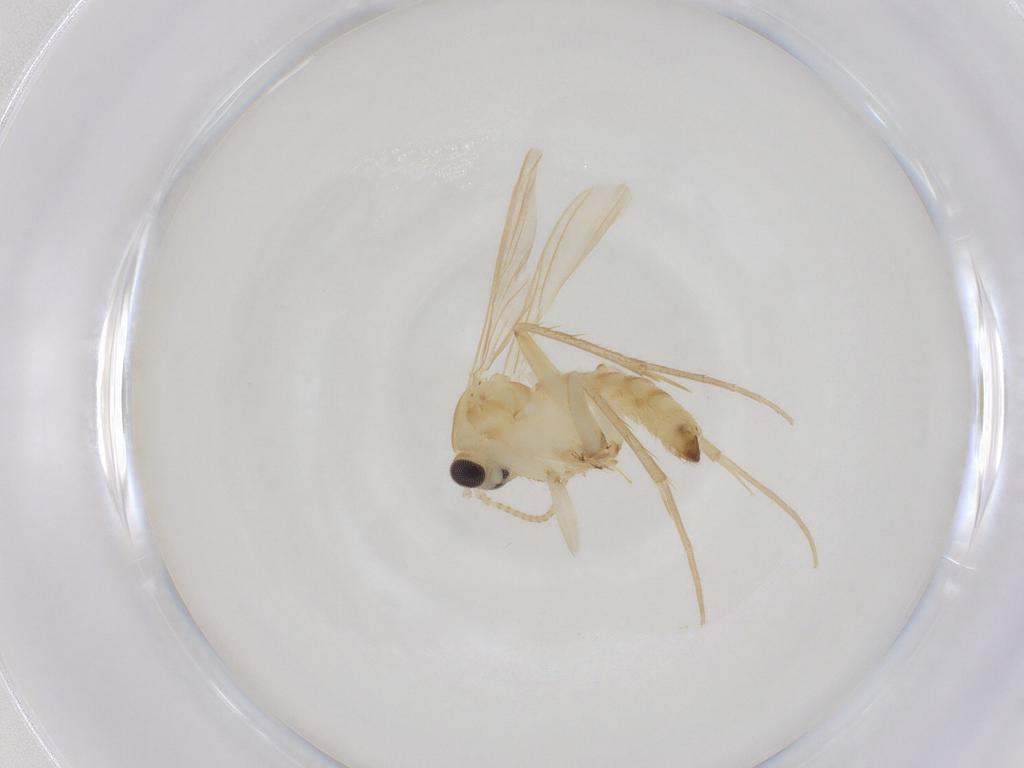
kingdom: Animalia
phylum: Arthropoda
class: Insecta
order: Diptera
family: Mycetophilidae
